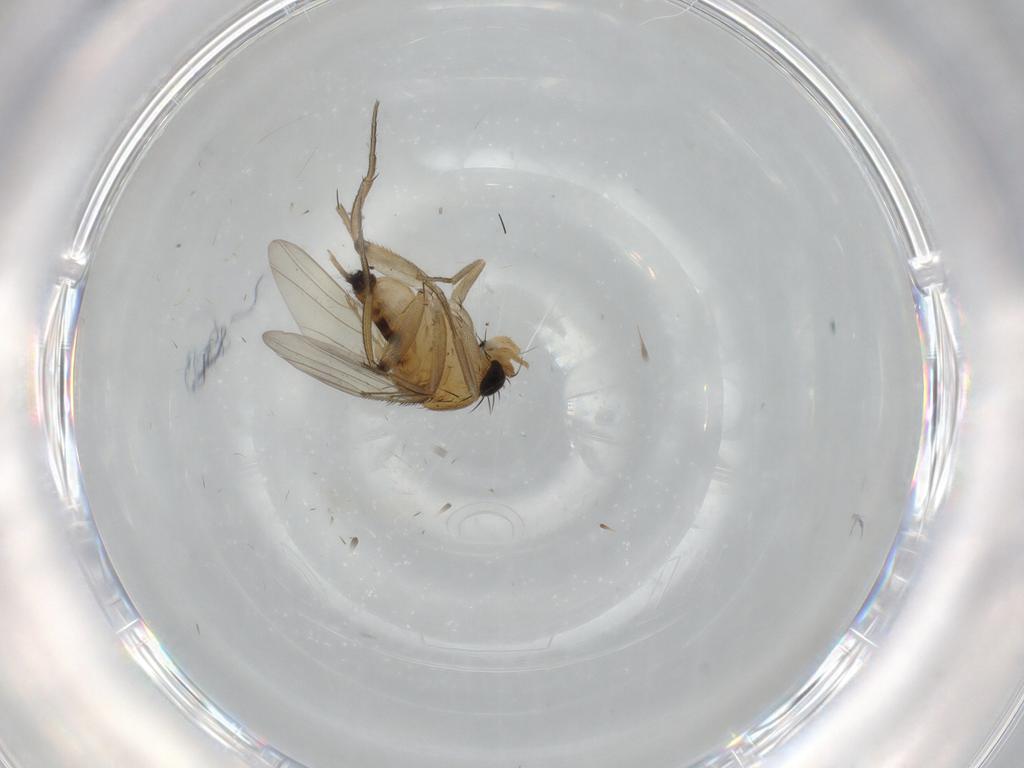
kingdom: Animalia
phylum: Arthropoda
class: Insecta
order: Diptera
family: Phoridae
